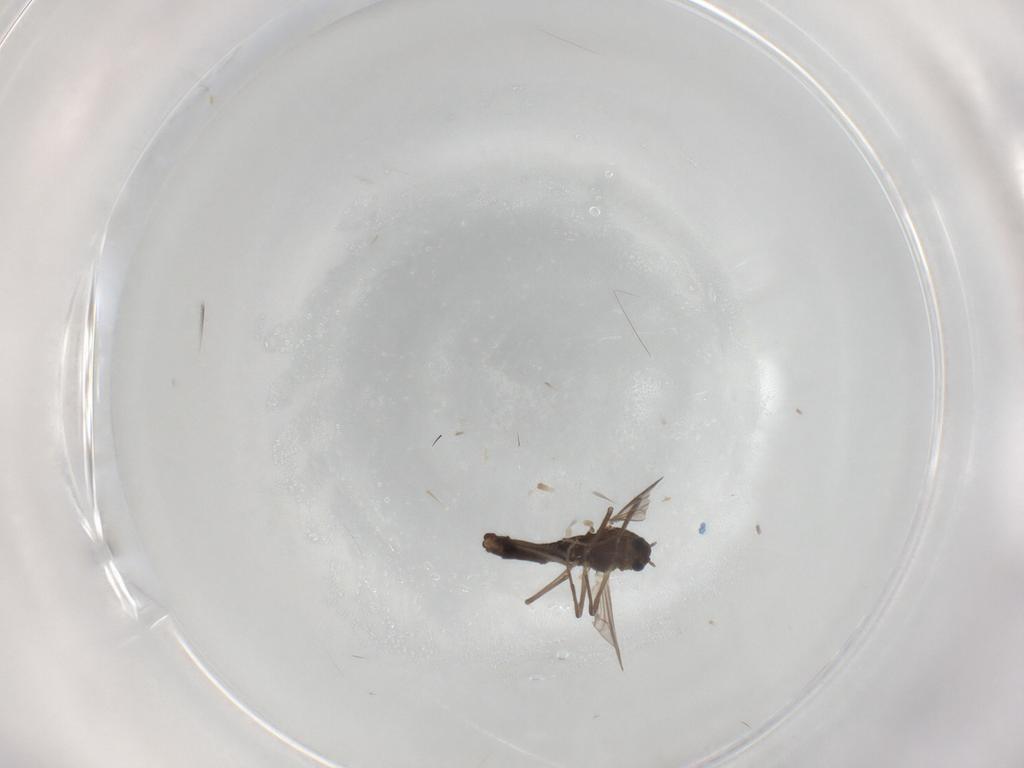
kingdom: Animalia
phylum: Arthropoda
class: Insecta
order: Diptera
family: Chironomidae
